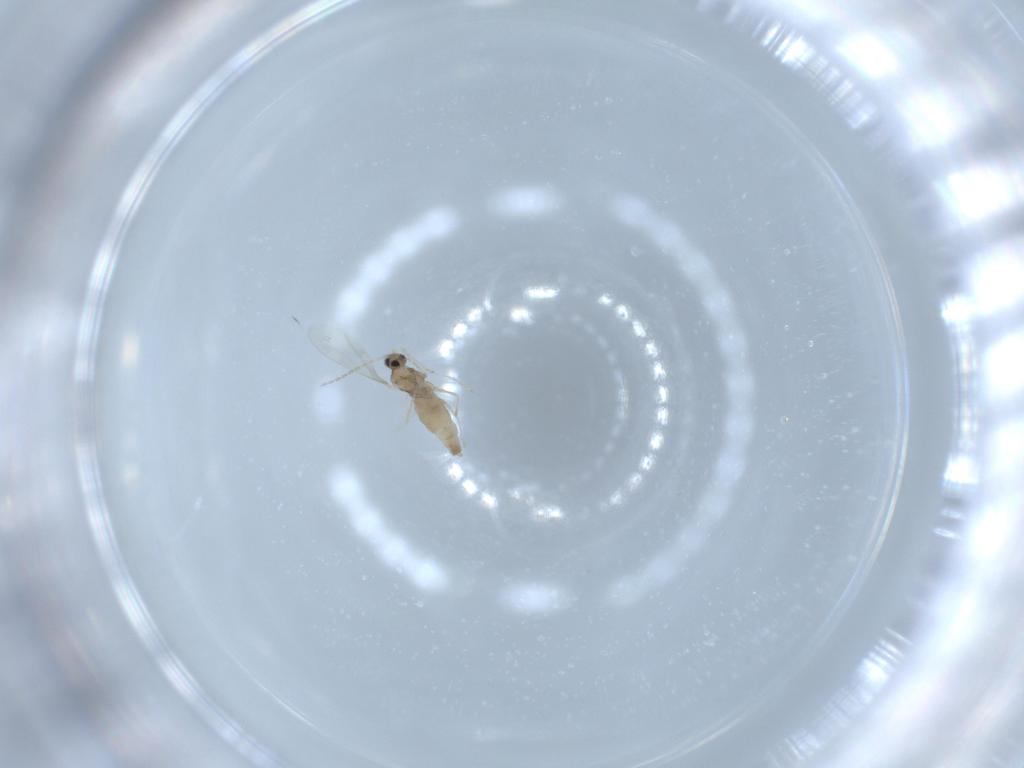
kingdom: Animalia
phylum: Arthropoda
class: Insecta
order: Diptera
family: Cecidomyiidae
